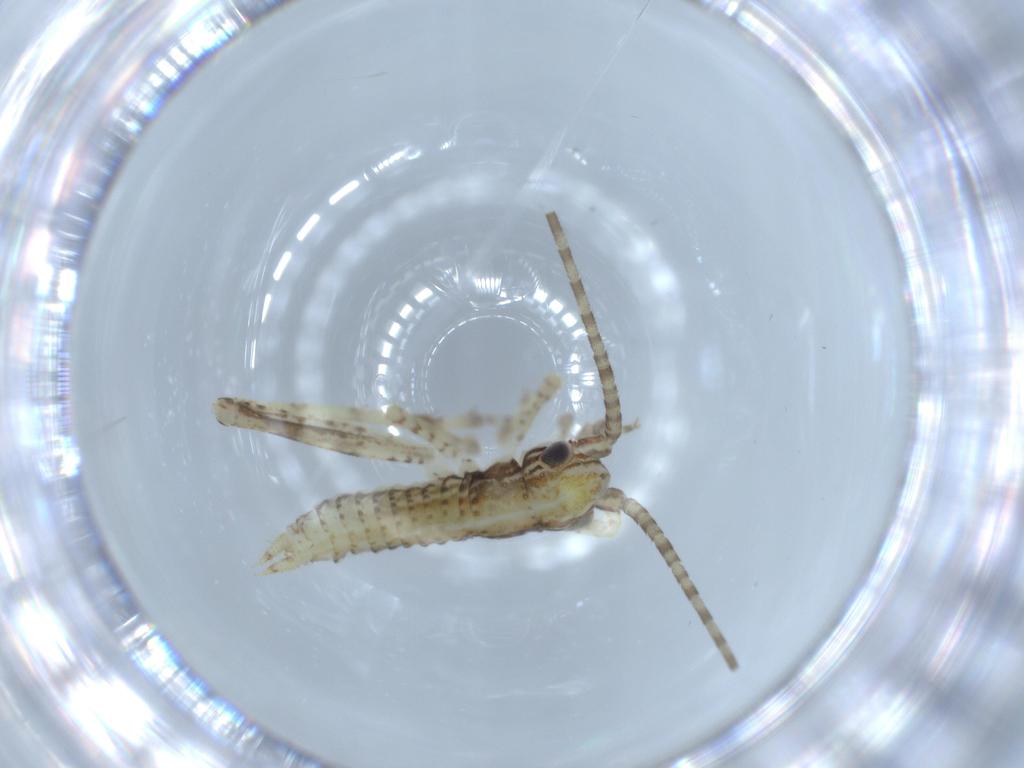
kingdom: Animalia
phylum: Arthropoda
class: Insecta
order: Orthoptera
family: Gryllidae
